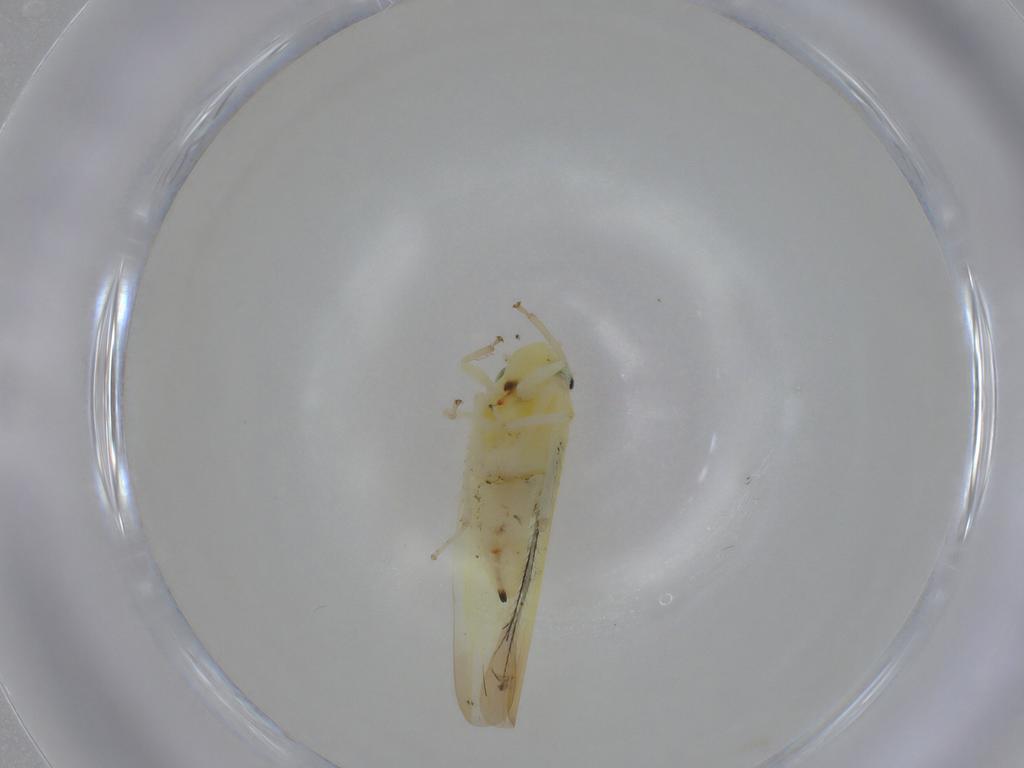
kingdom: Animalia
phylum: Arthropoda
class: Insecta
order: Hemiptera
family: Cicadellidae
